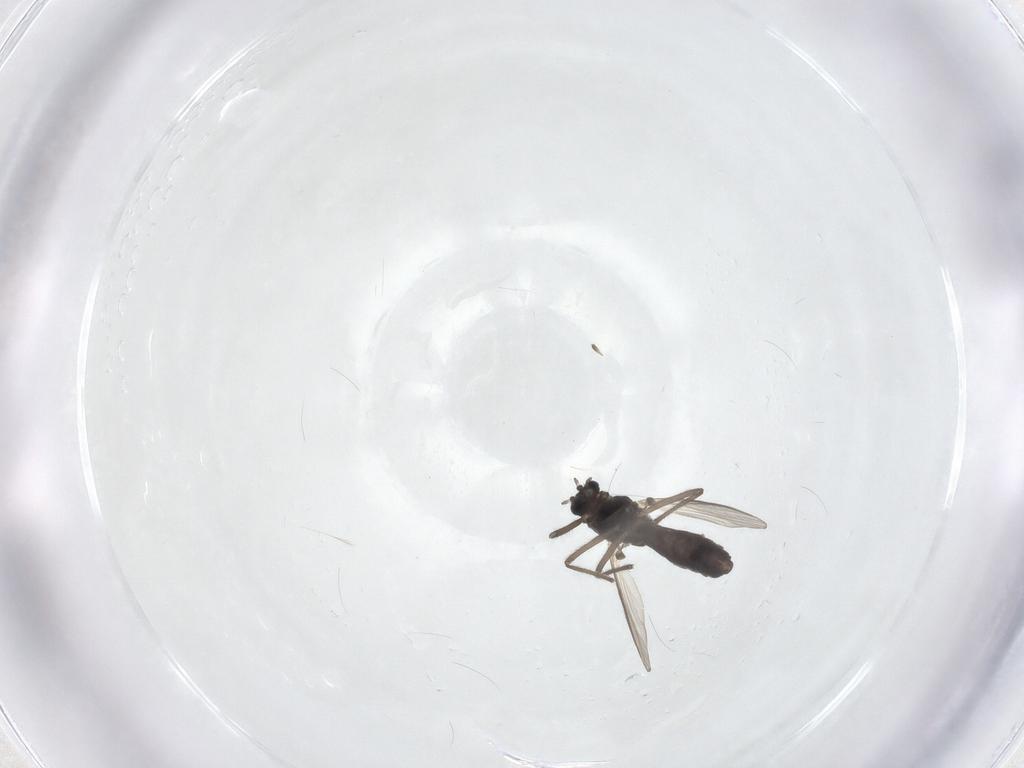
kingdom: Animalia
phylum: Arthropoda
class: Insecta
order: Diptera
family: Chironomidae
